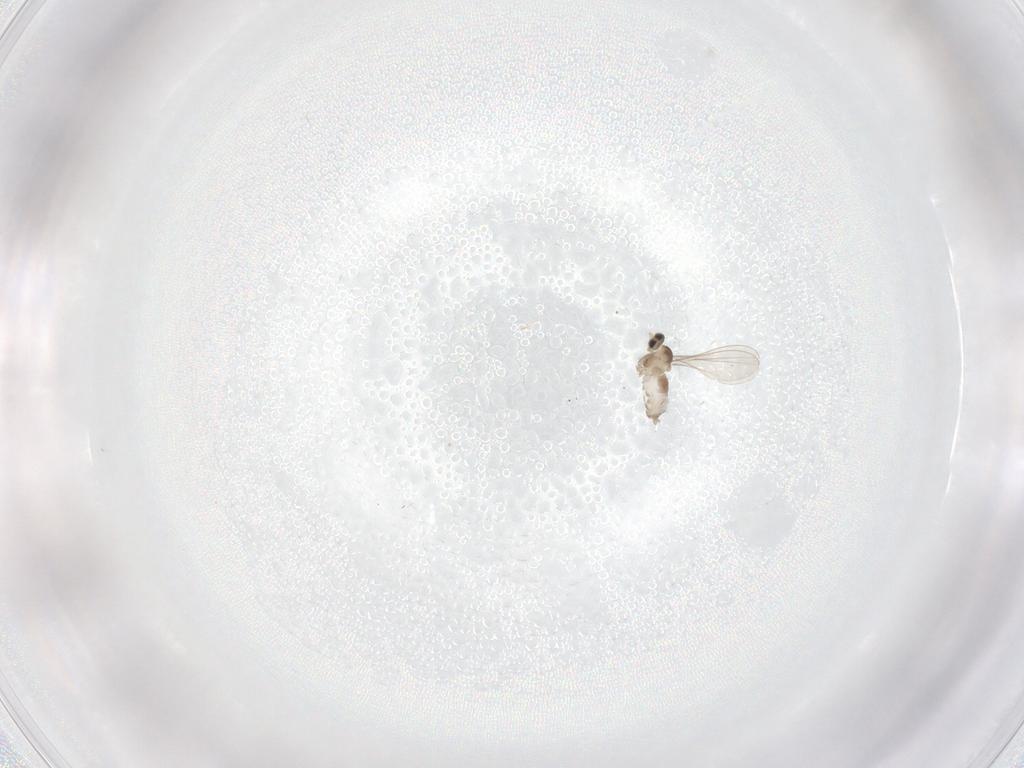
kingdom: Animalia
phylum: Arthropoda
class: Insecta
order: Diptera
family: Cecidomyiidae
